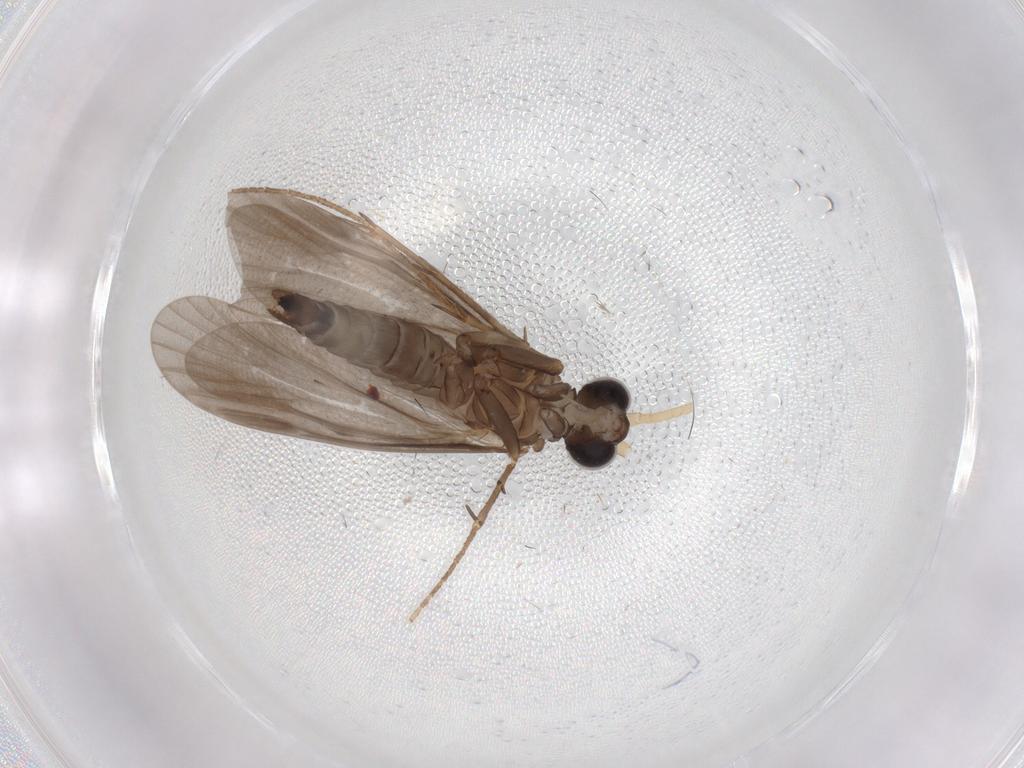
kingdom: Animalia
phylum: Arthropoda
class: Insecta
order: Trichoptera
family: Ecnomidae
